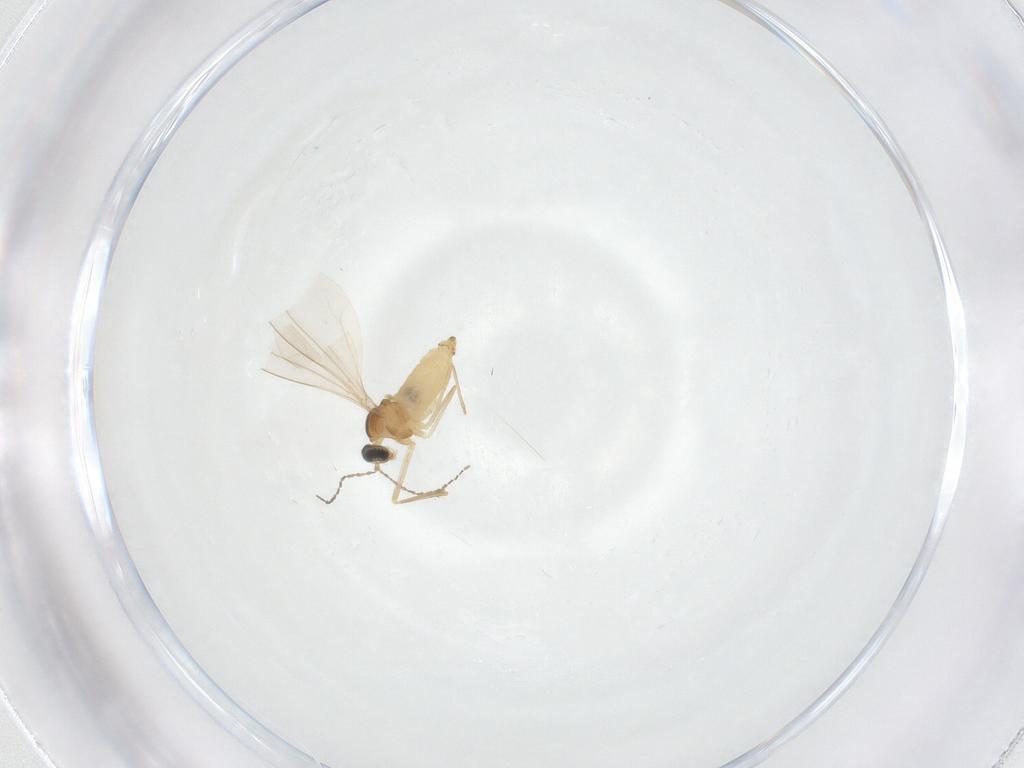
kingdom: Animalia
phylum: Arthropoda
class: Insecta
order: Diptera
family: Cecidomyiidae
